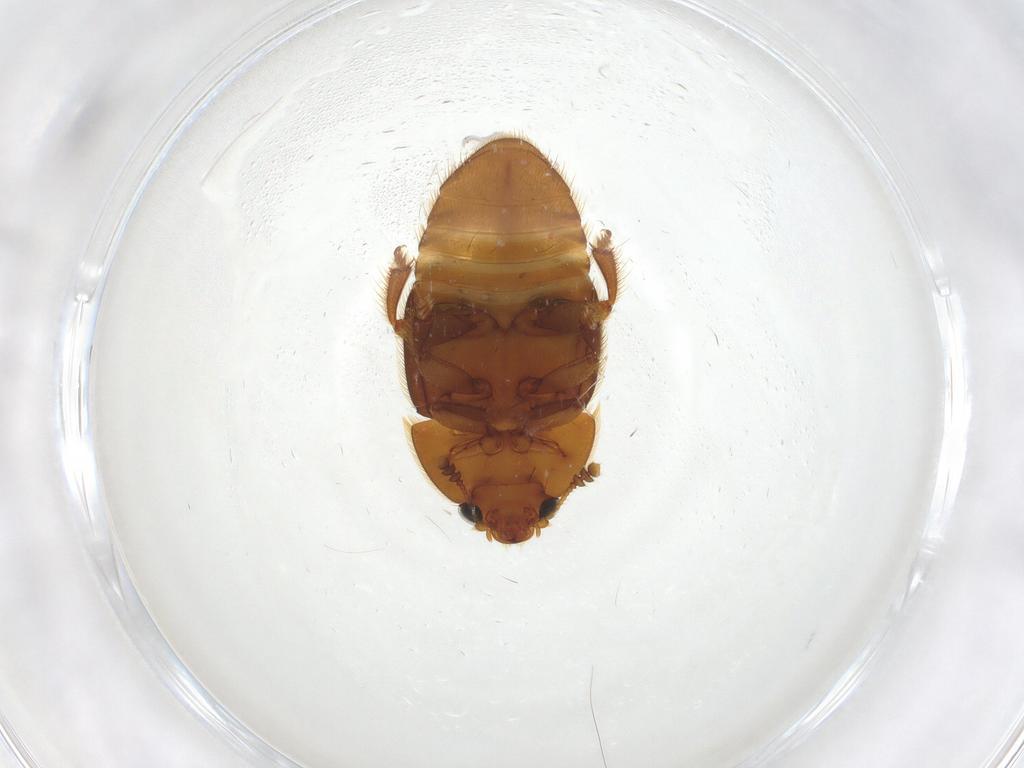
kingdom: Animalia
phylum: Arthropoda
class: Insecta
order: Coleoptera
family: Nitidulidae
